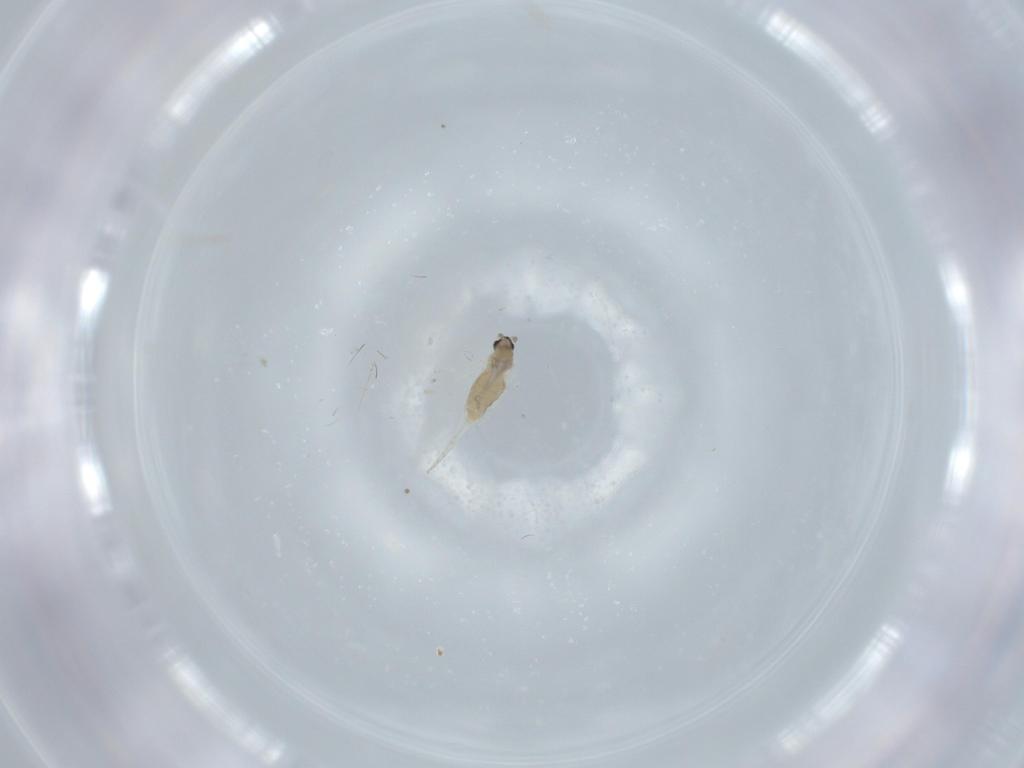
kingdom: Animalia
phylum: Arthropoda
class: Insecta
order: Diptera
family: Cecidomyiidae
